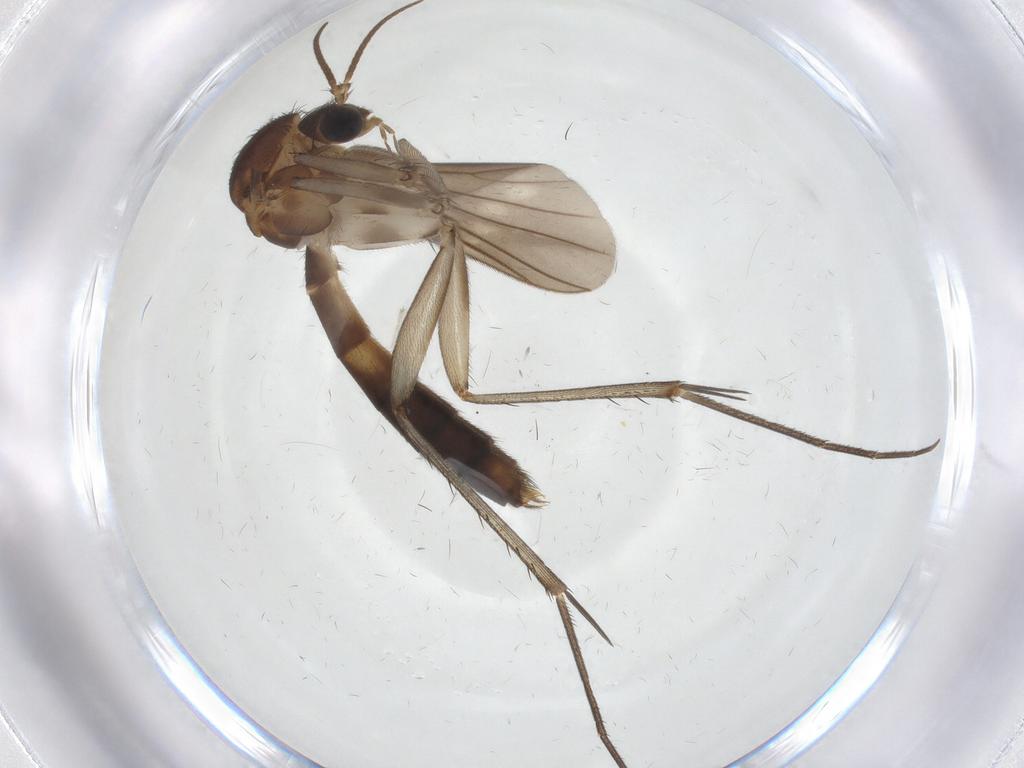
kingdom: Animalia
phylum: Arthropoda
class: Insecta
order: Diptera
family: Mycetophilidae
